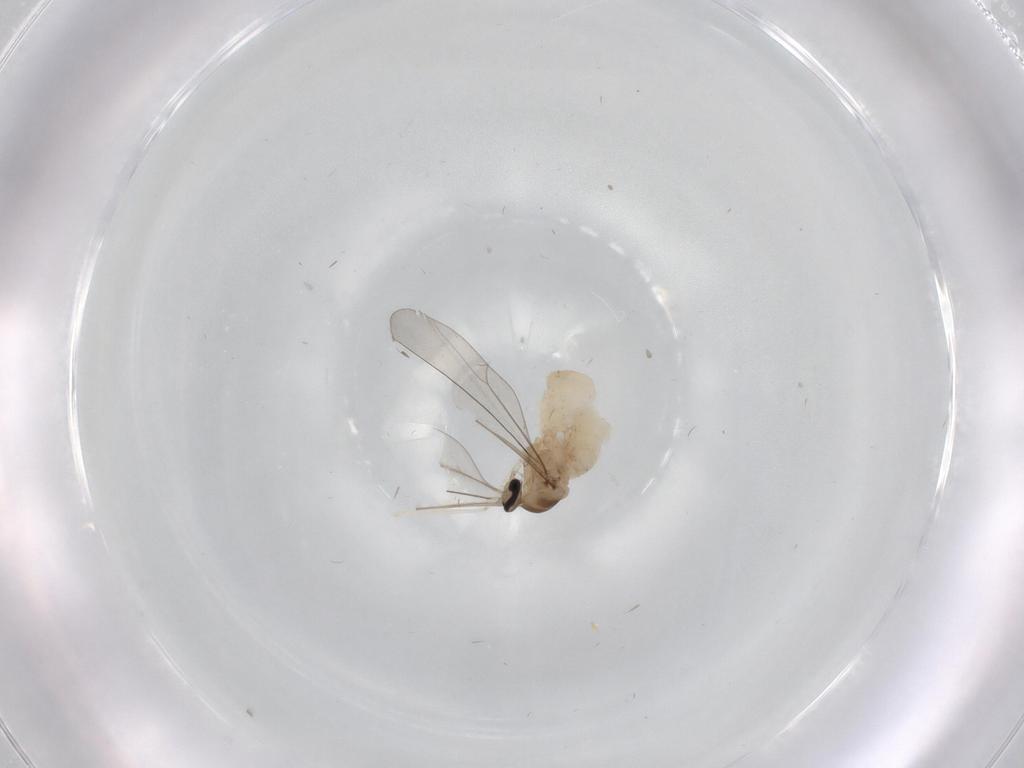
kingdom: Animalia
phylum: Arthropoda
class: Insecta
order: Diptera
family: Cecidomyiidae
